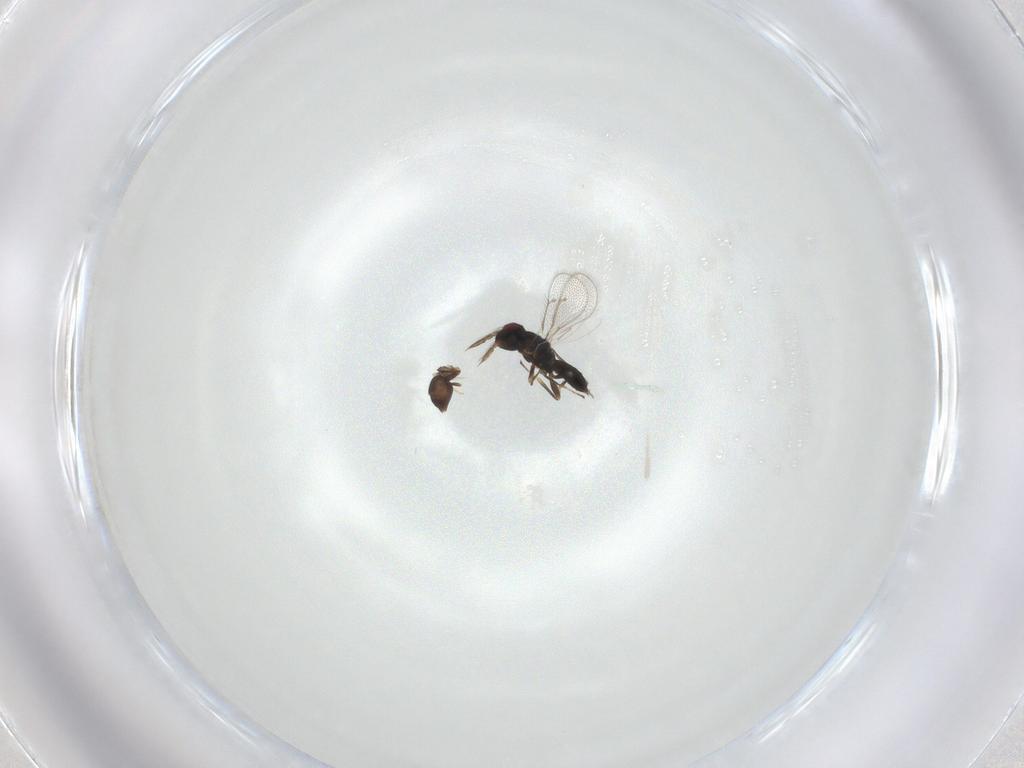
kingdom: Animalia
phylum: Arthropoda
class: Insecta
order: Hymenoptera
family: Eulophidae
